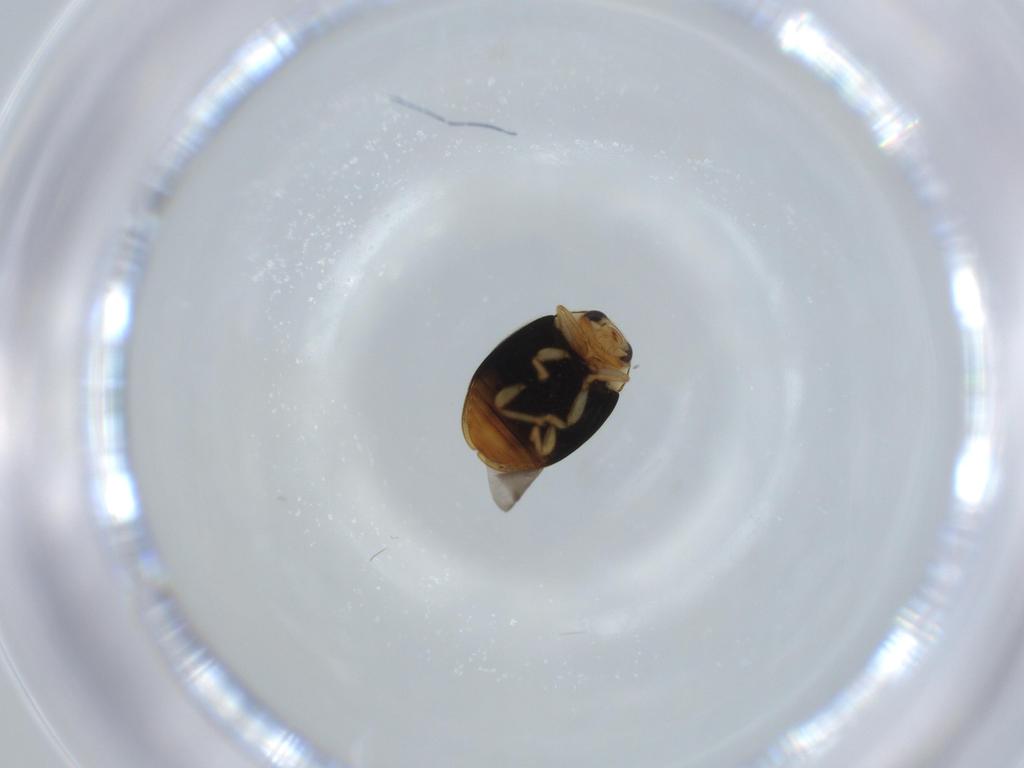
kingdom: Animalia
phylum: Arthropoda
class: Insecta
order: Coleoptera
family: Coccinellidae
